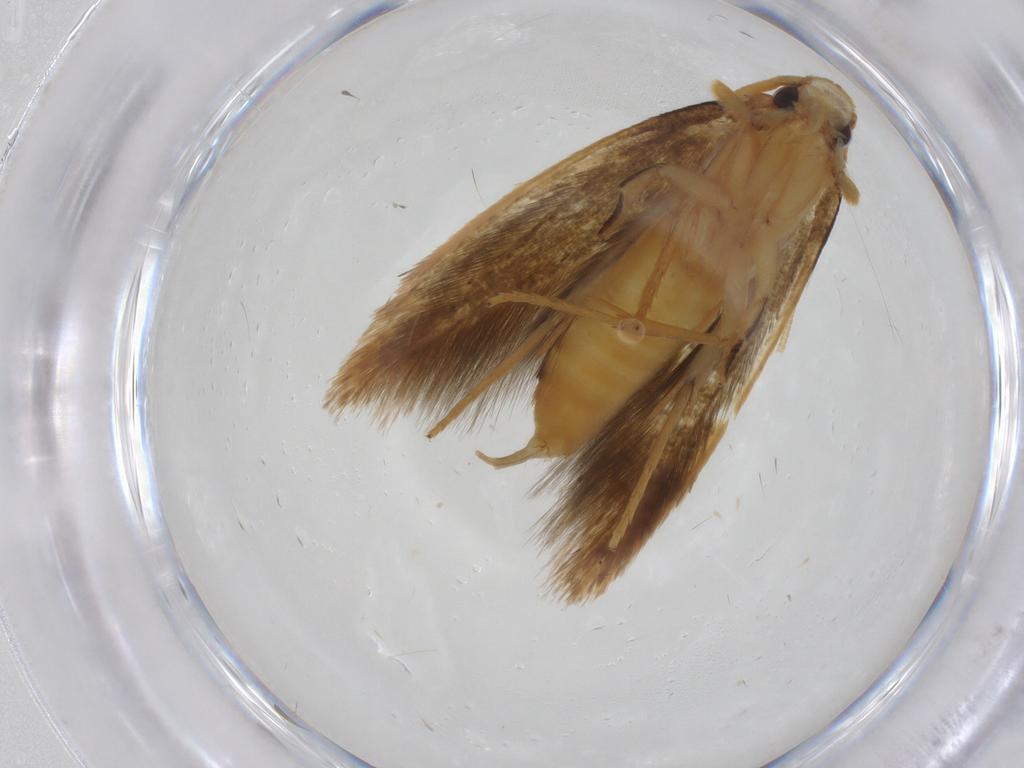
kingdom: Animalia
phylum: Arthropoda
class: Insecta
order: Lepidoptera
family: Tineidae
